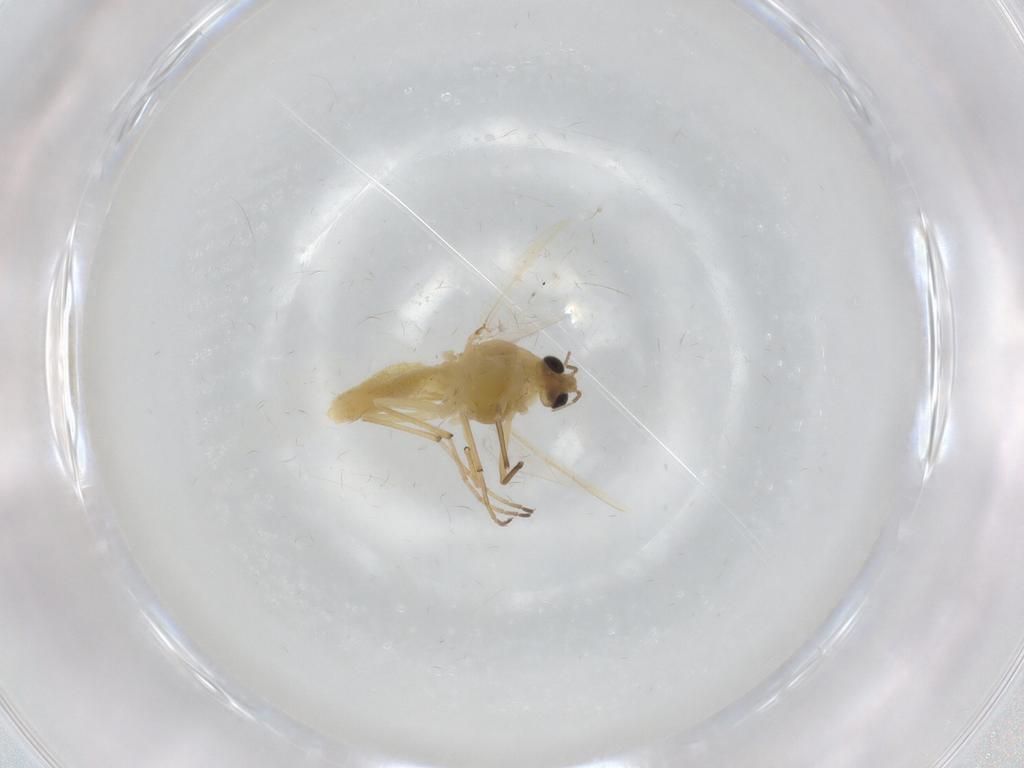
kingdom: Animalia
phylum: Arthropoda
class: Insecta
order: Diptera
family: Chironomidae
